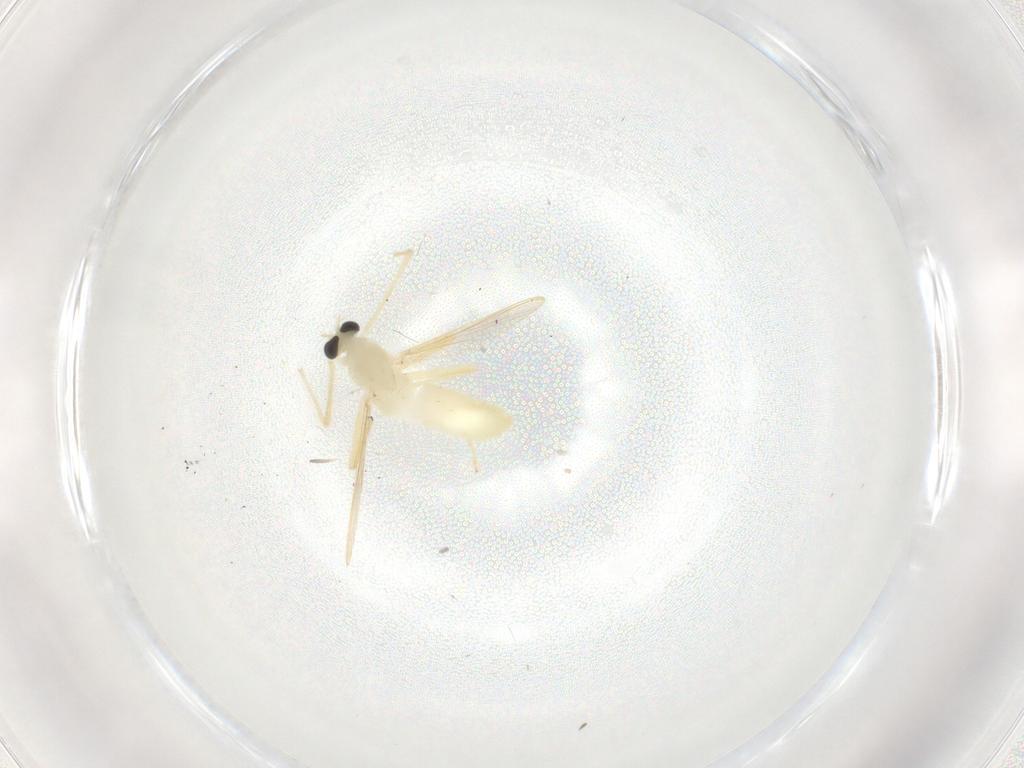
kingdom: Animalia
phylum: Arthropoda
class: Insecta
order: Diptera
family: Chironomidae
